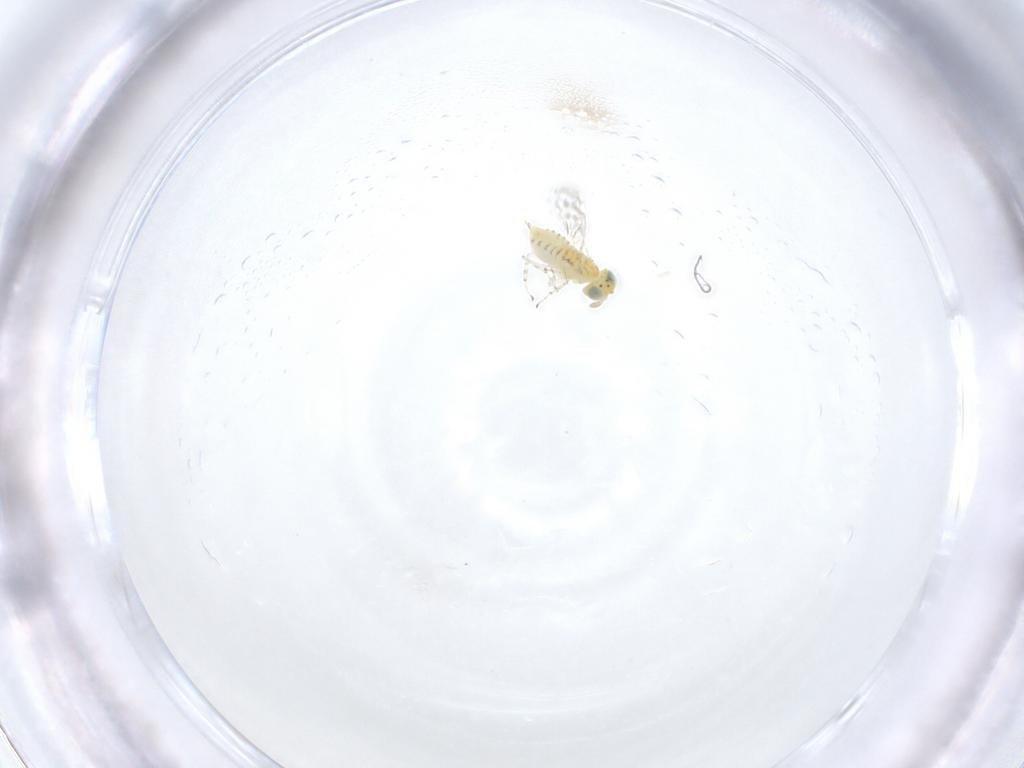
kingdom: Animalia
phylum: Arthropoda
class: Insecta
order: Hymenoptera
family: Aphelinidae
